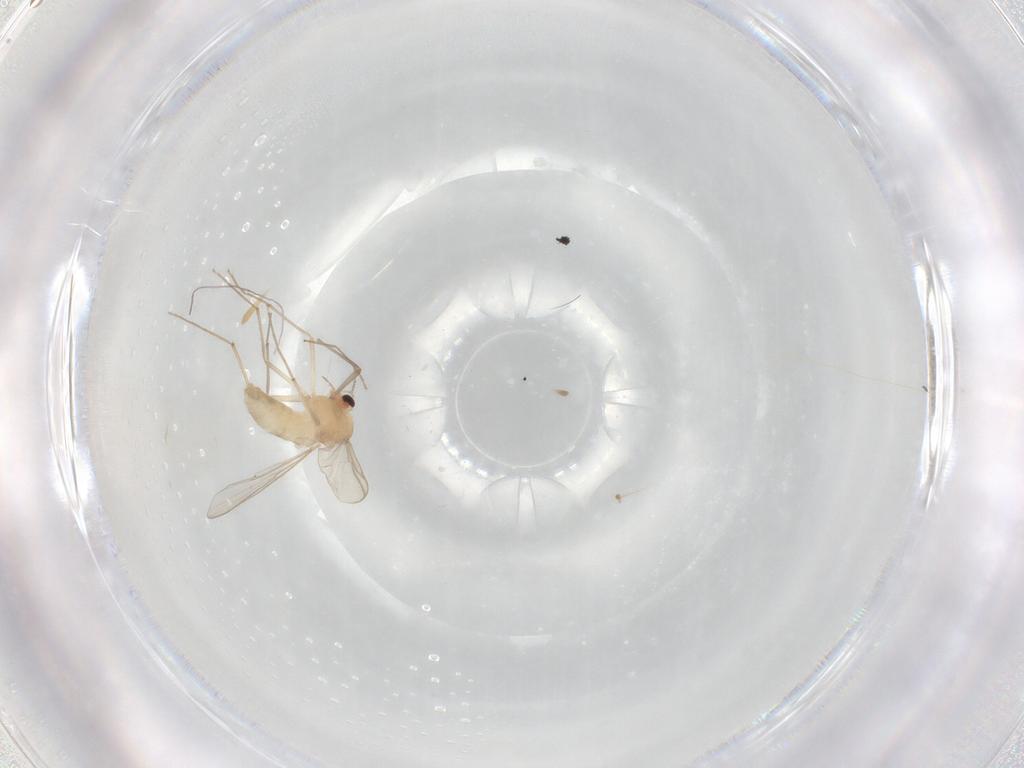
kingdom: Animalia
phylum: Arthropoda
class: Insecta
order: Diptera
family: Chironomidae
